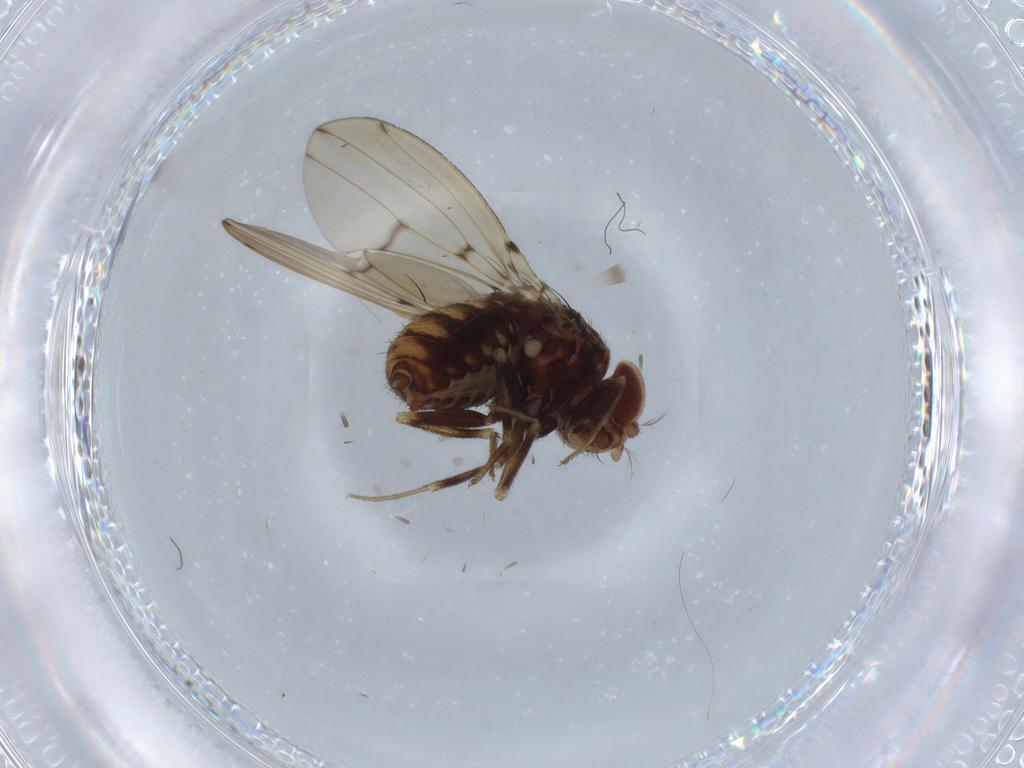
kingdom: Animalia
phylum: Arthropoda
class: Insecta
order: Diptera
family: Drosophilidae
